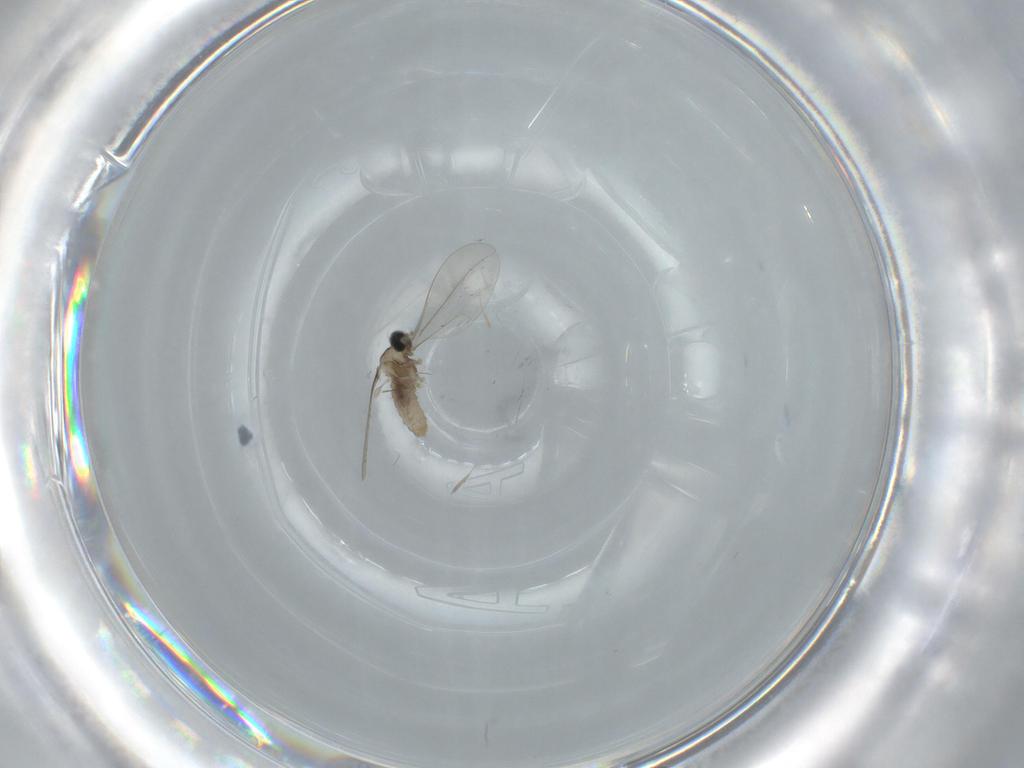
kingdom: Animalia
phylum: Arthropoda
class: Insecta
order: Diptera
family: Cecidomyiidae
